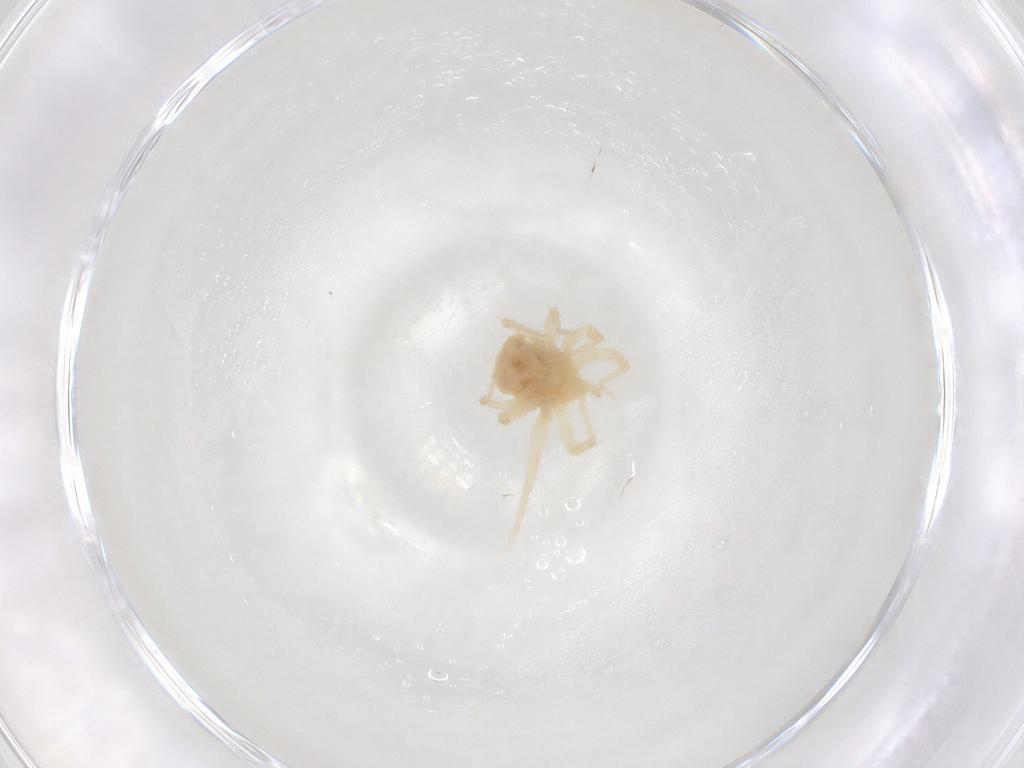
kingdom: Animalia
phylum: Arthropoda
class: Arachnida
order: Trombidiformes
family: Anystidae
